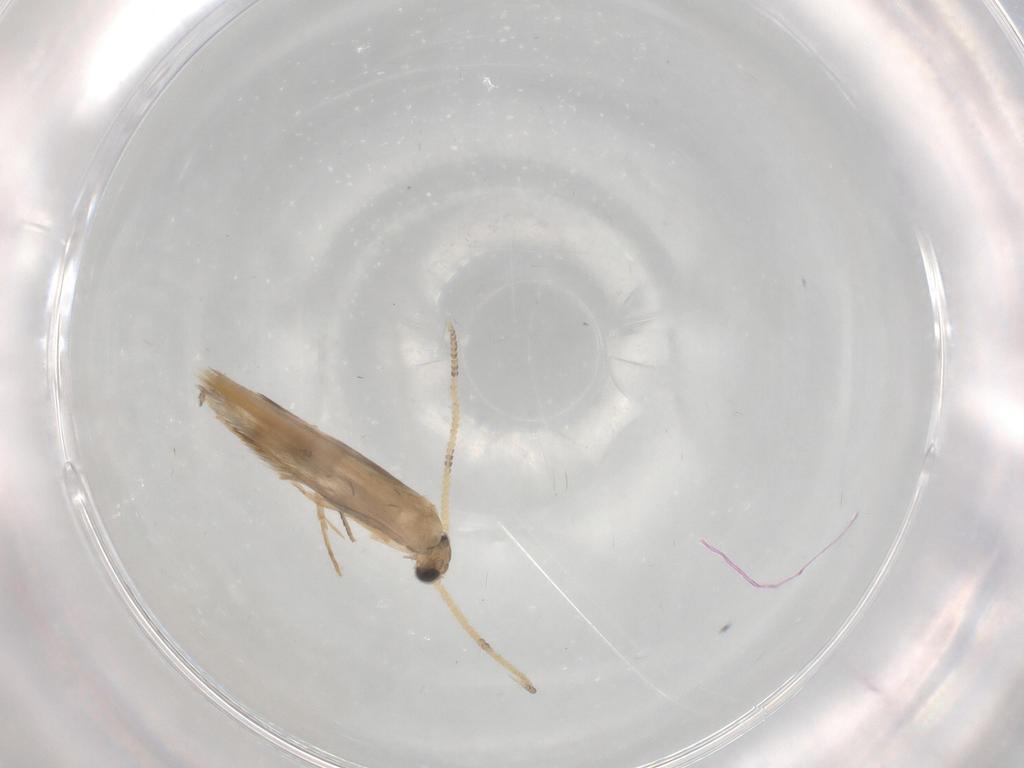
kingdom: Animalia
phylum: Arthropoda
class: Insecta
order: Trichoptera
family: Hydroptilidae
